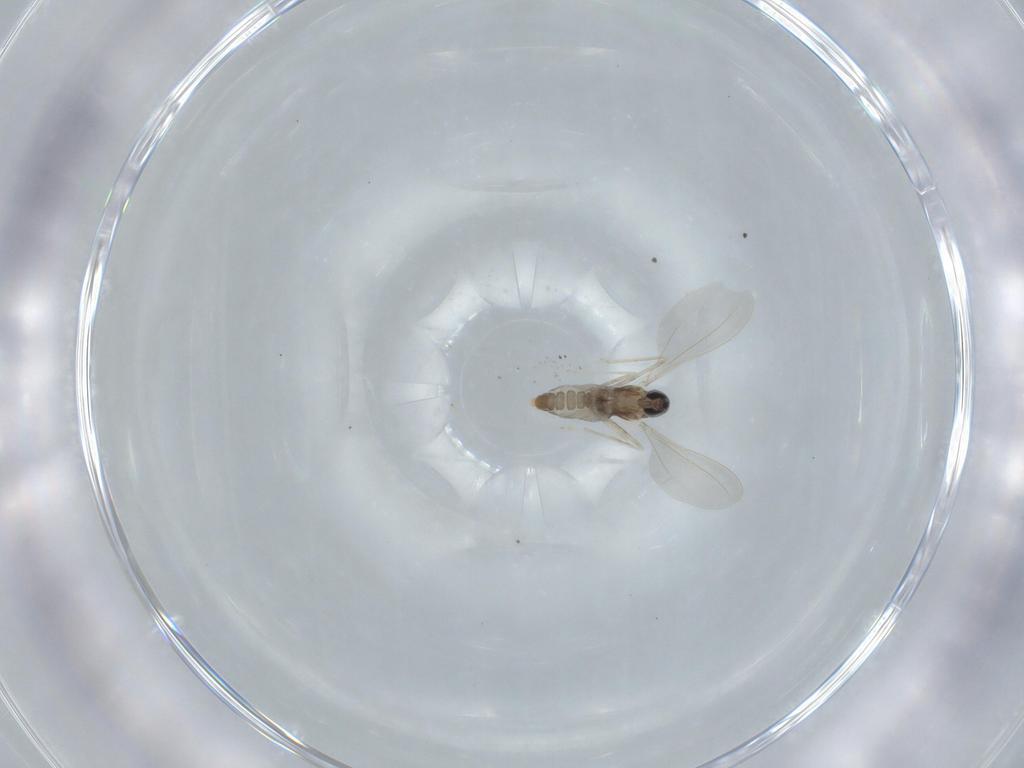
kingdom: Animalia
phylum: Arthropoda
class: Insecta
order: Diptera
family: Cecidomyiidae
